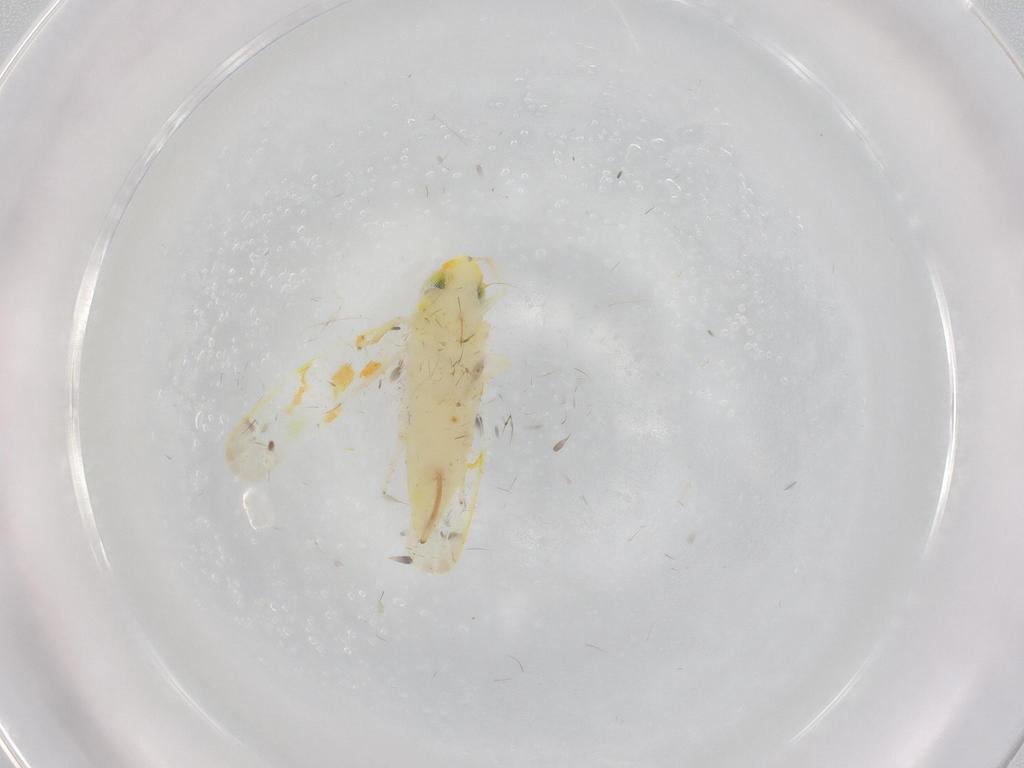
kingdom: Animalia
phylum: Arthropoda
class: Insecta
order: Hemiptera
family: Cicadellidae
